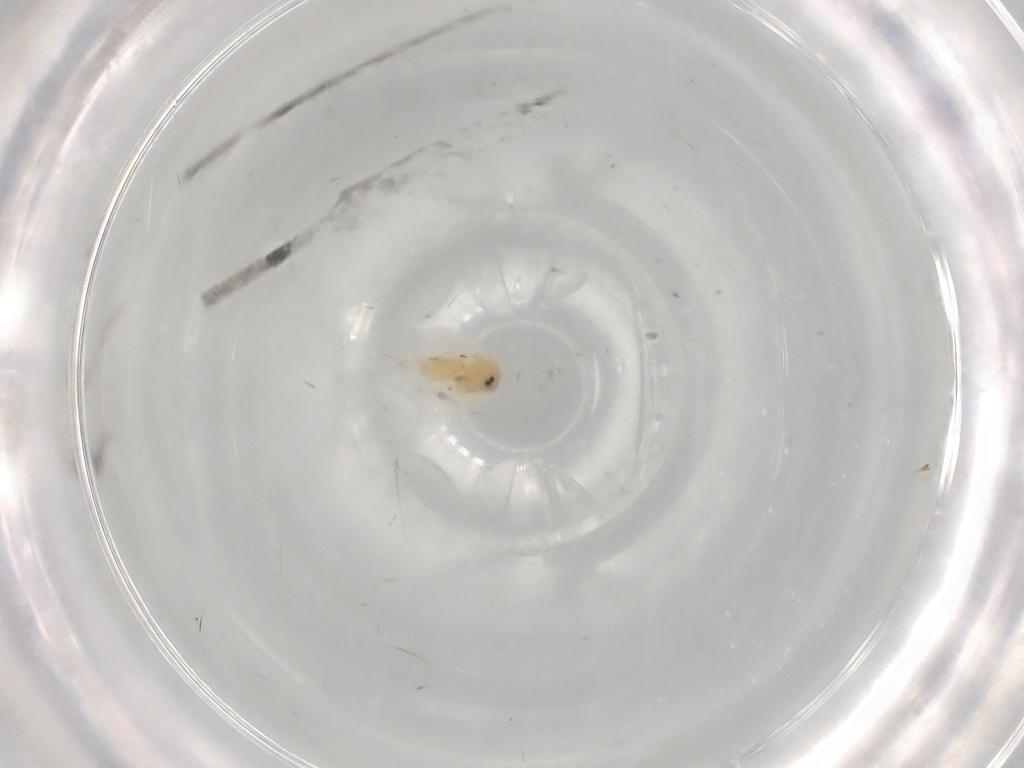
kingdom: Animalia
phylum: Arthropoda
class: Insecta
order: Hemiptera
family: Aleyrodidae
